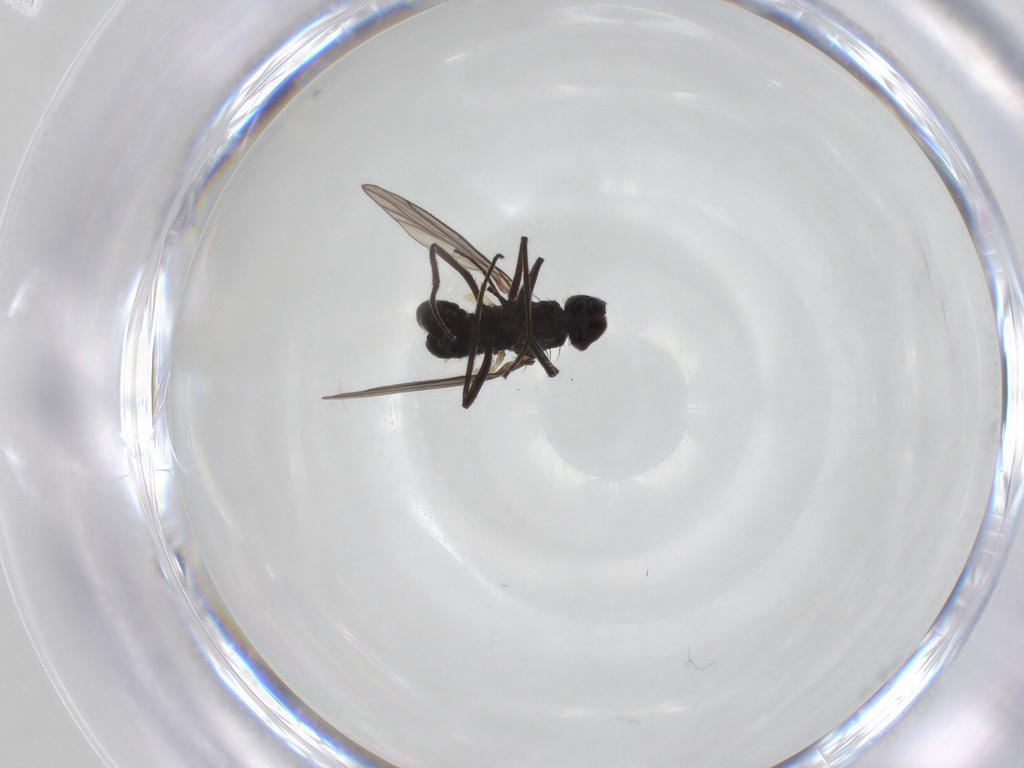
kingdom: Animalia
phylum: Arthropoda
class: Insecta
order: Diptera
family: Dolichopodidae
